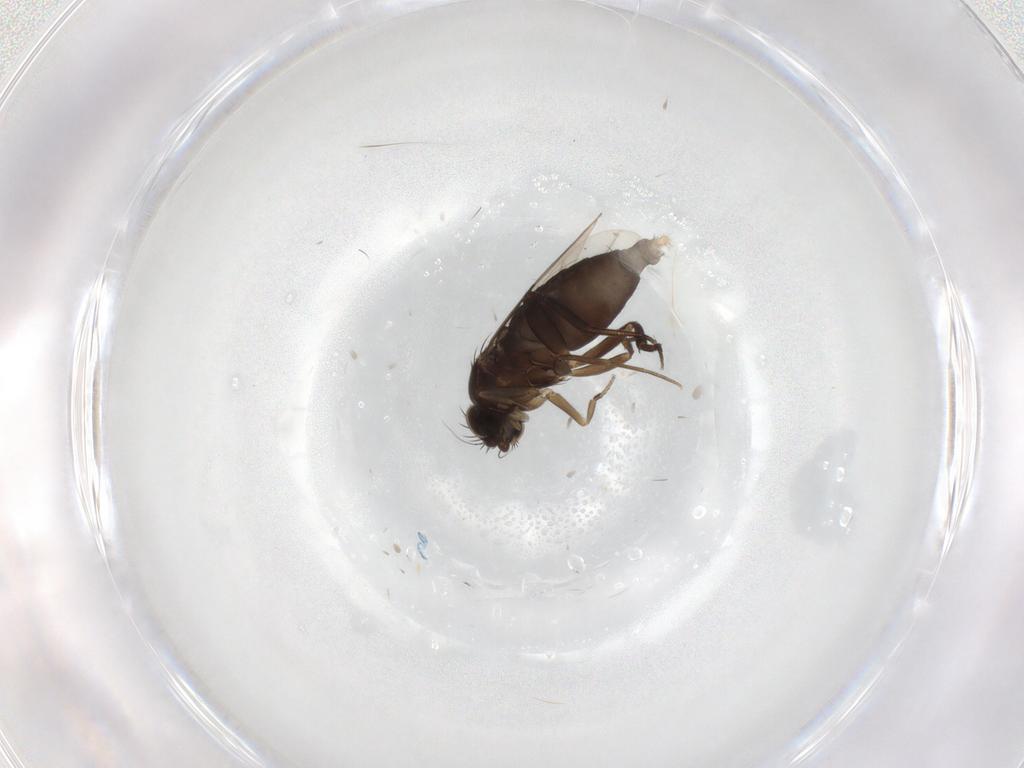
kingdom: Animalia
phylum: Arthropoda
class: Insecta
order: Diptera
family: Phoridae
